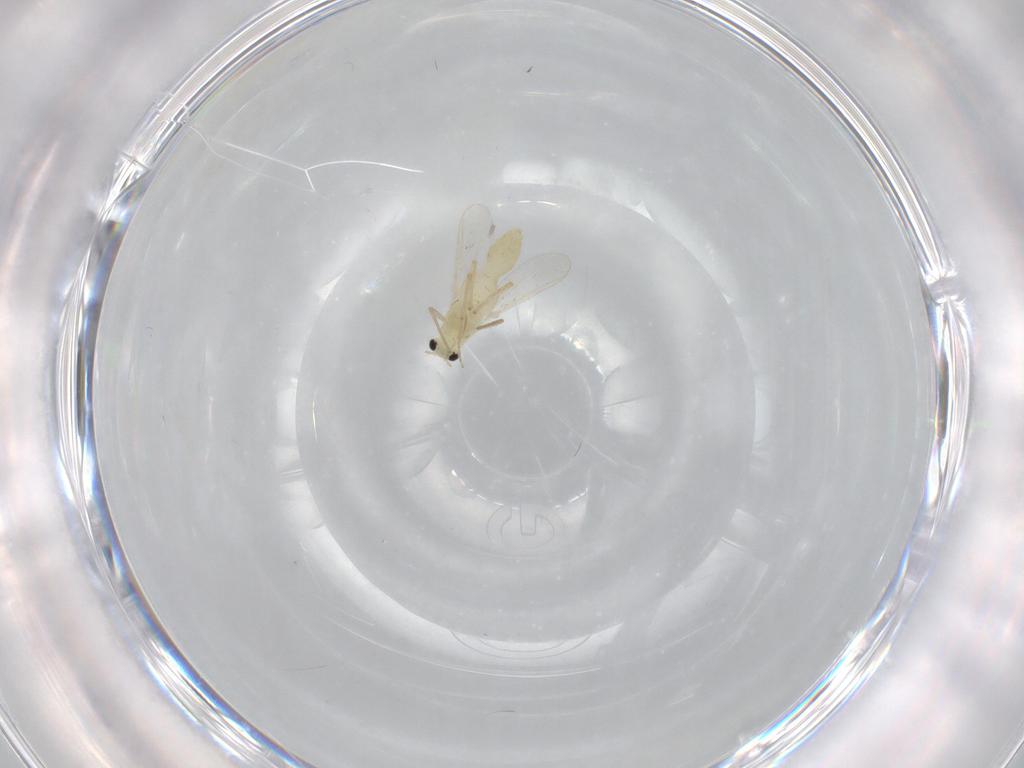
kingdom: Animalia
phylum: Arthropoda
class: Insecta
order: Diptera
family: Chironomidae
